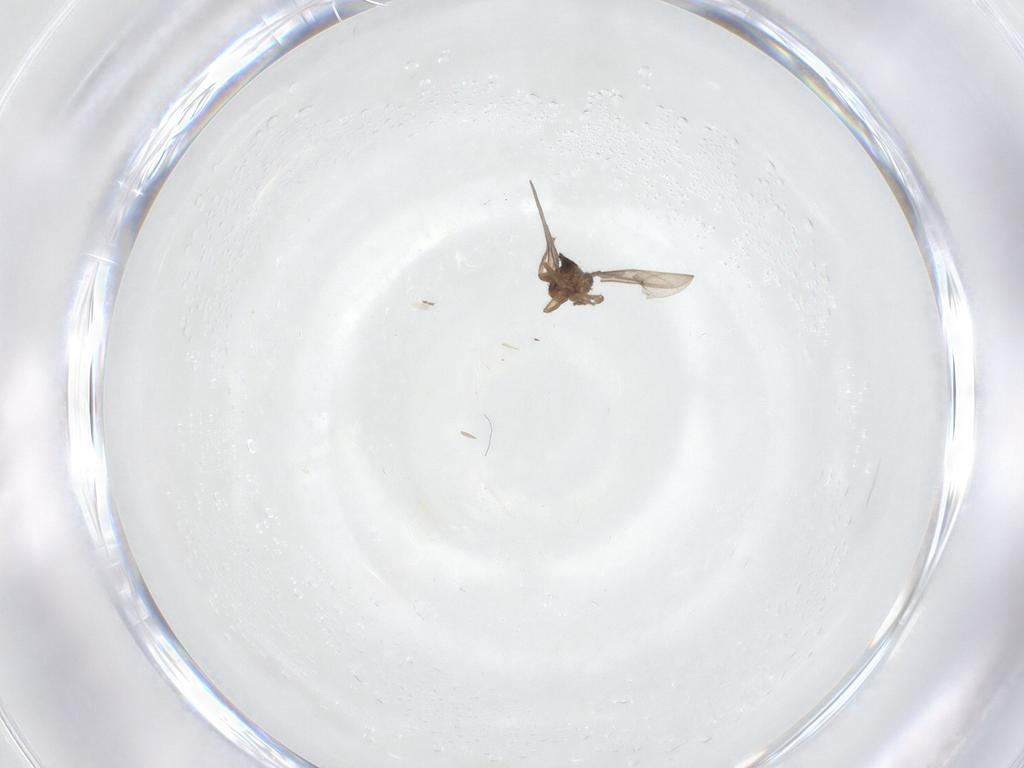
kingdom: Animalia
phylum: Arthropoda
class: Insecta
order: Diptera
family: Phoridae
